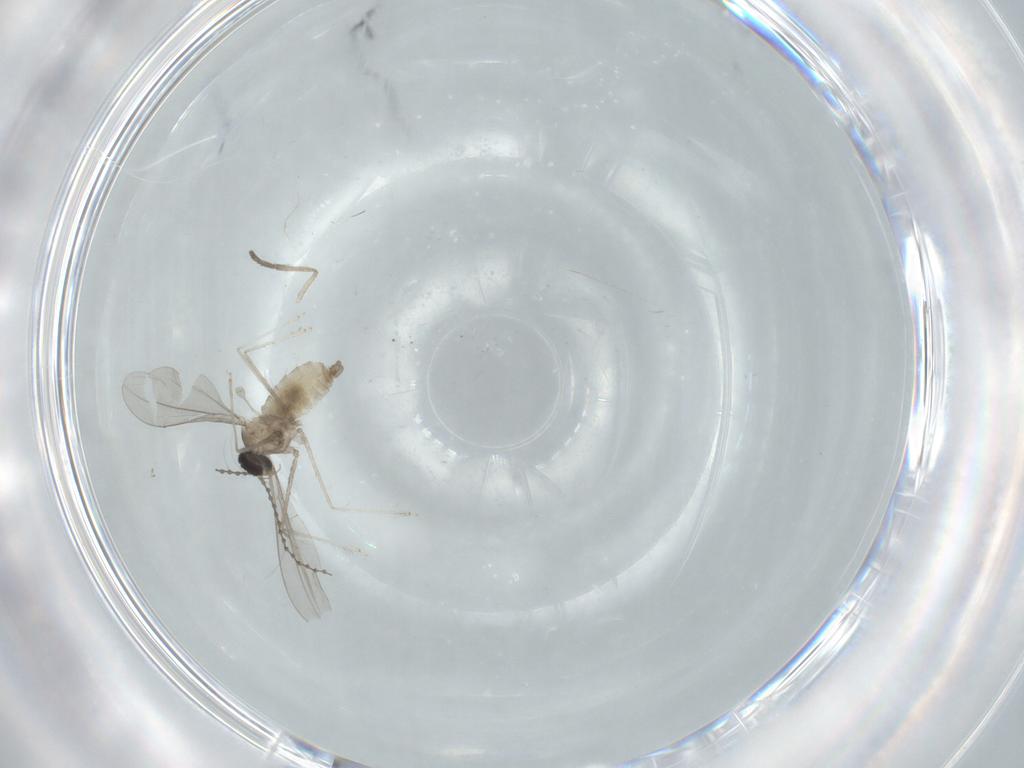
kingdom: Animalia
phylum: Arthropoda
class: Insecta
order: Diptera
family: Cecidomyiidae
